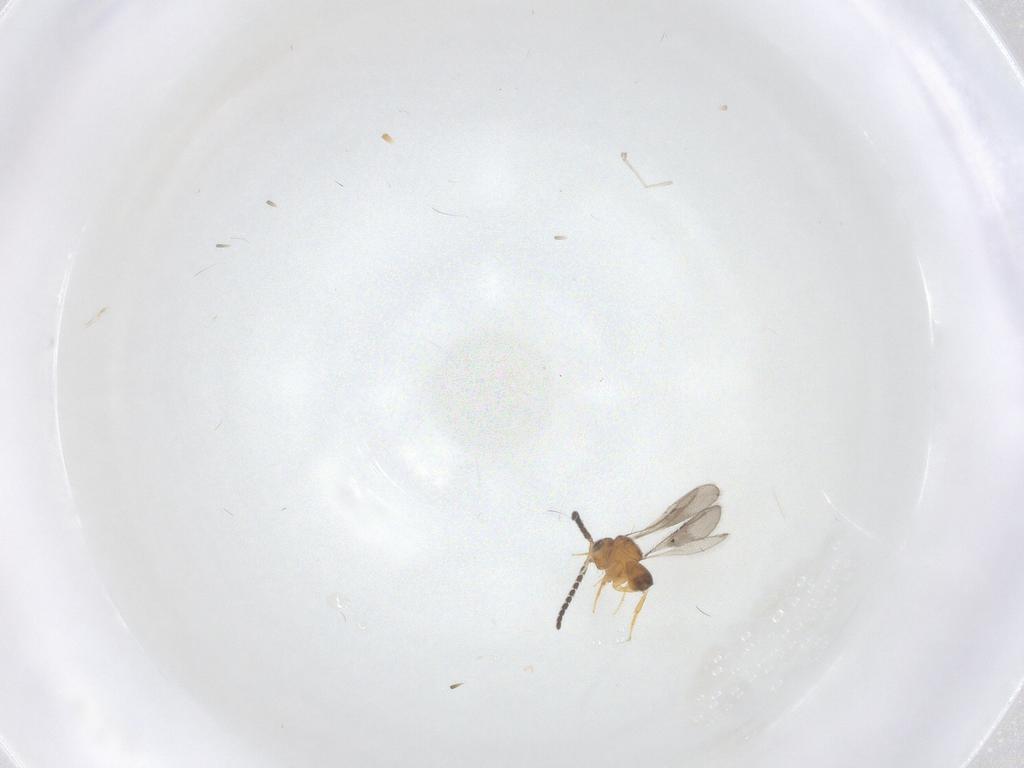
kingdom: Animalia
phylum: Arthropoda
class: Insecta
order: Hymenoptera
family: Ceraphronidae
